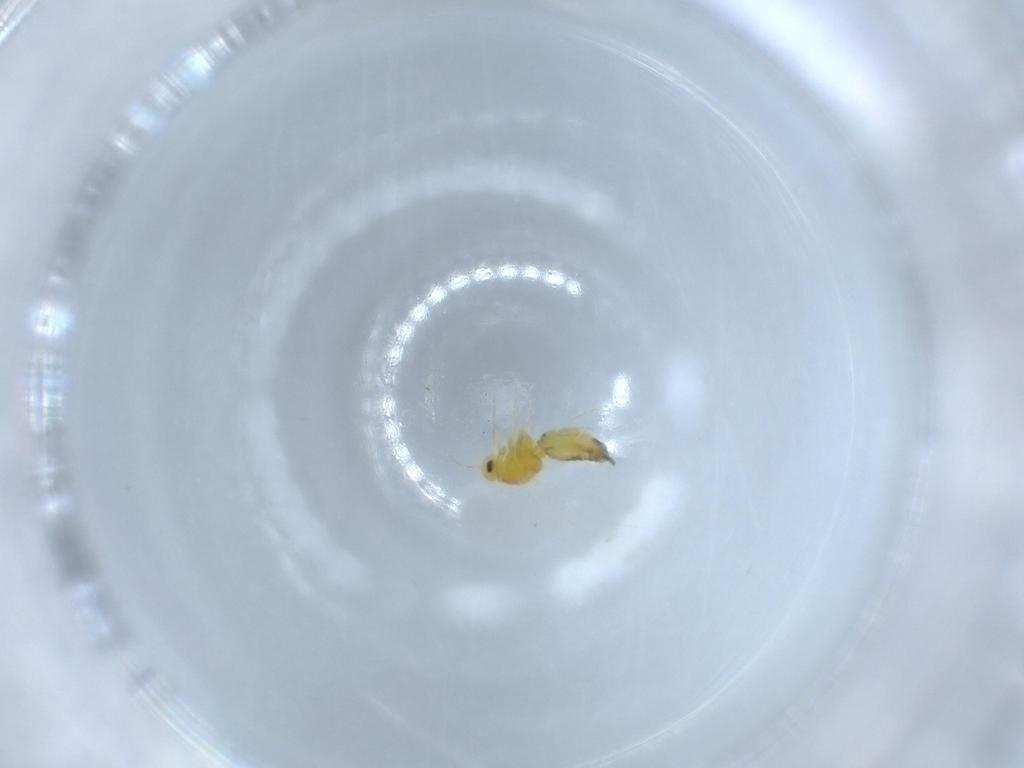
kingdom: Animalia
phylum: Arthropoda
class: Insecta
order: Hemiptera
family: Aleyrodidae
